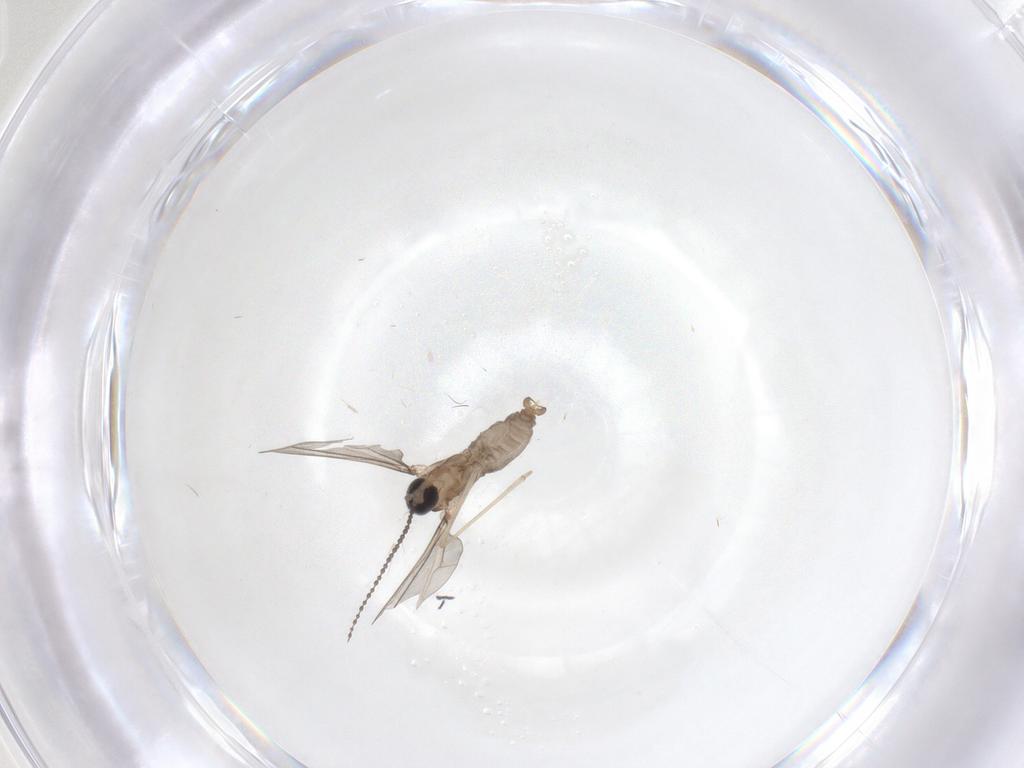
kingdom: Animalia
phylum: Arthropoda
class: Insecta
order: Diptera
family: Cecidomyiidae
